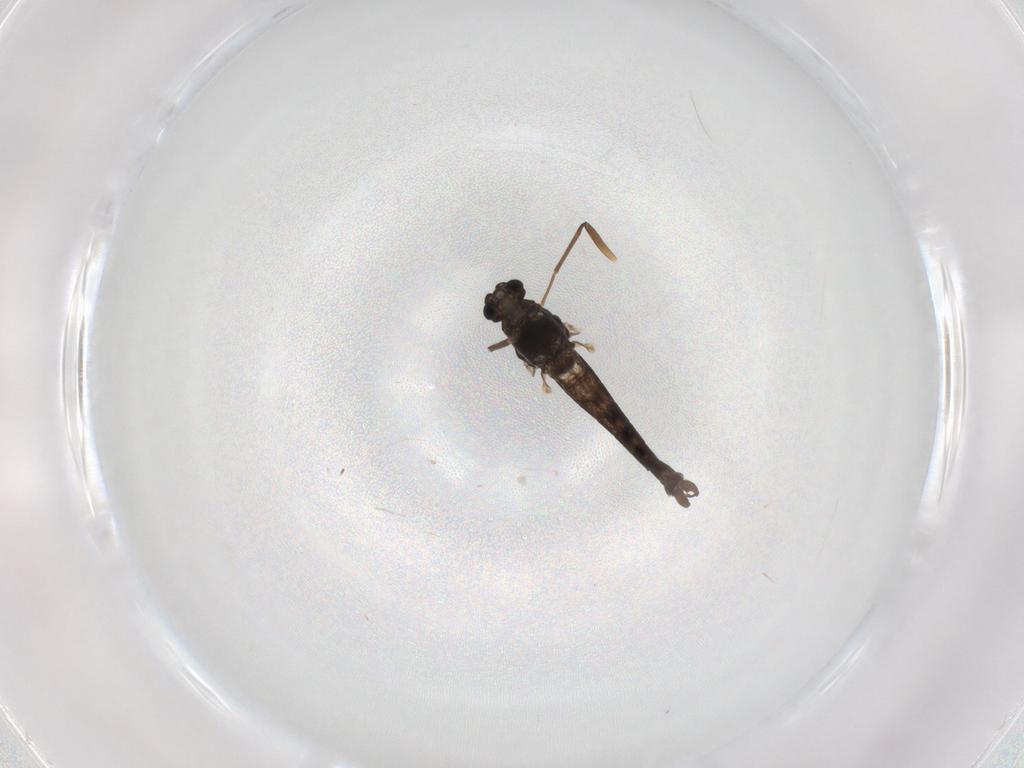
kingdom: Animalia
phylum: Arthropoda
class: Insecta
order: Diptera
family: Chironomidae
